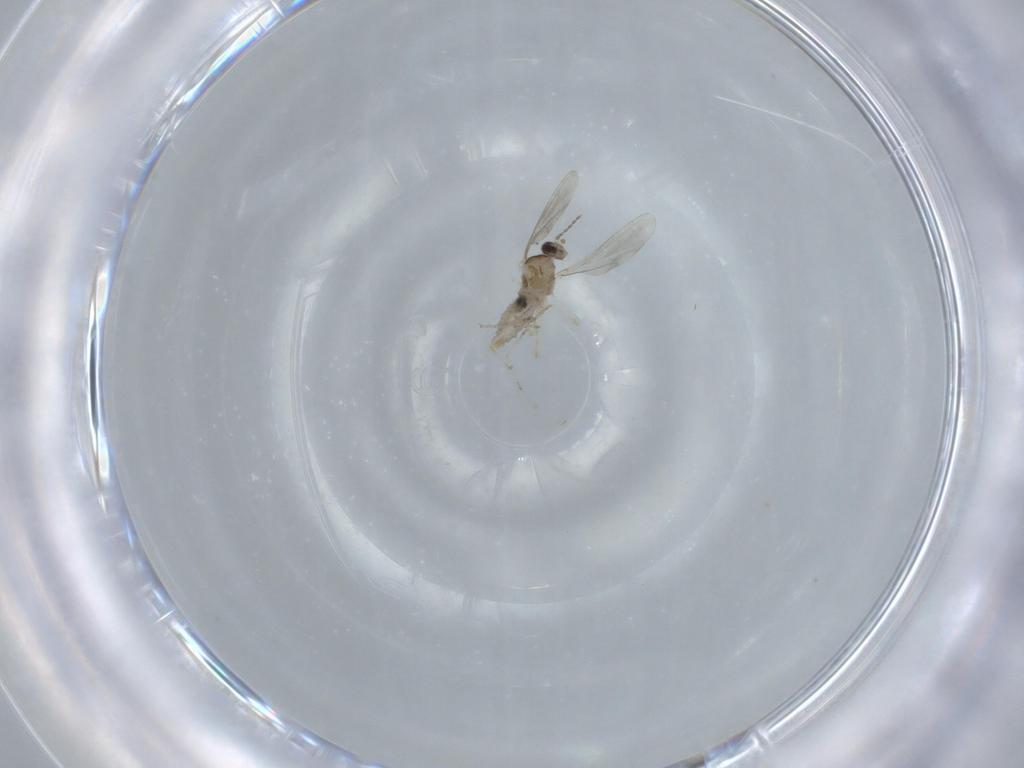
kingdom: Animalia
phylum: Arthropoda
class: Insecta
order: Diptera
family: Cecidomyiidae
